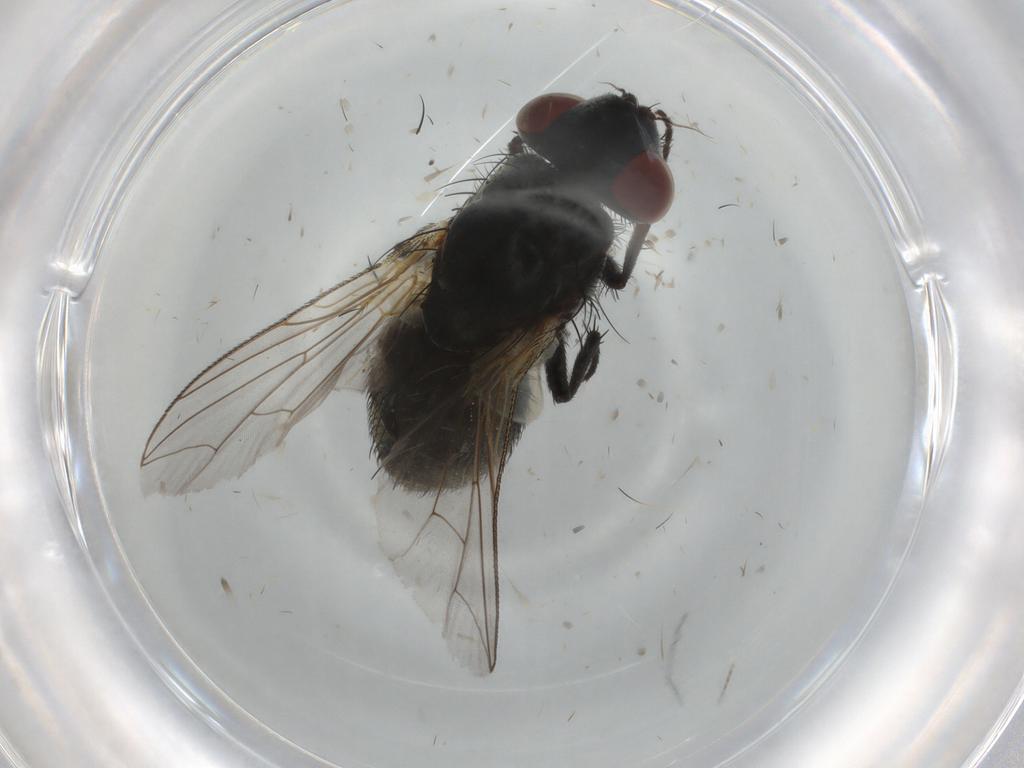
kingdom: Animalia
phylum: Arthropoda
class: Insecta
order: Diptera
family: Sarcophagidae
